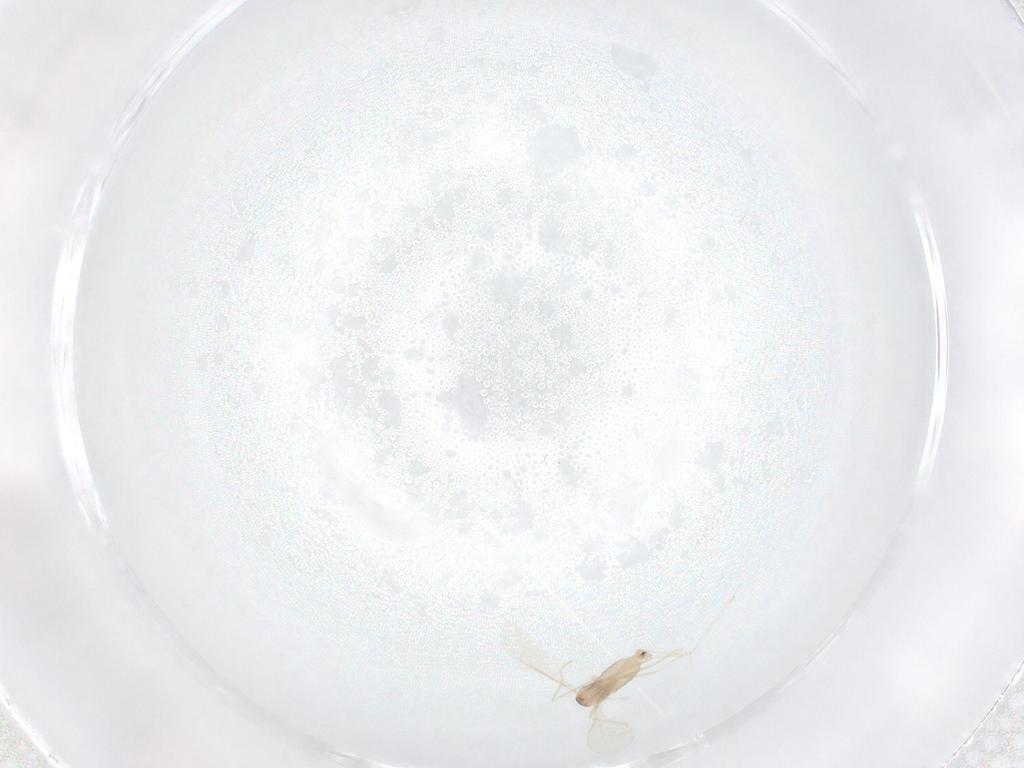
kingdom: Animalia
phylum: Arthropoda
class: Insecta
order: Diptera
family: Cecidomyiidae
